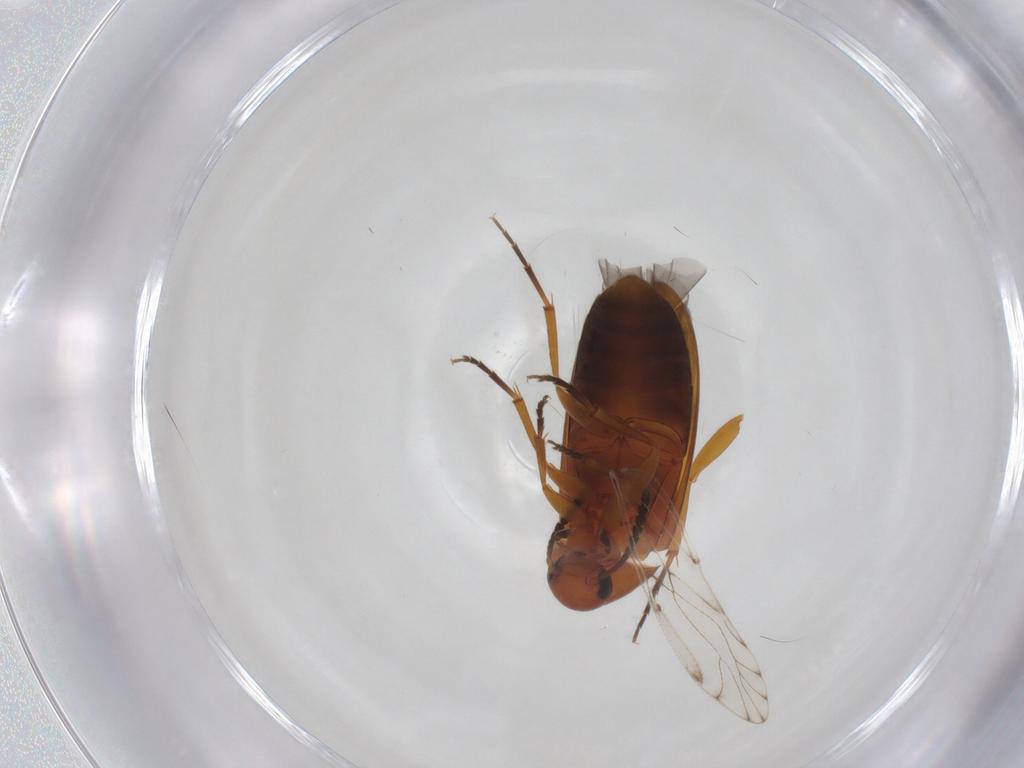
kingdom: Animalia
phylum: Arthropoda
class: Insecta
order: Coleoptera
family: Scraptiidae
